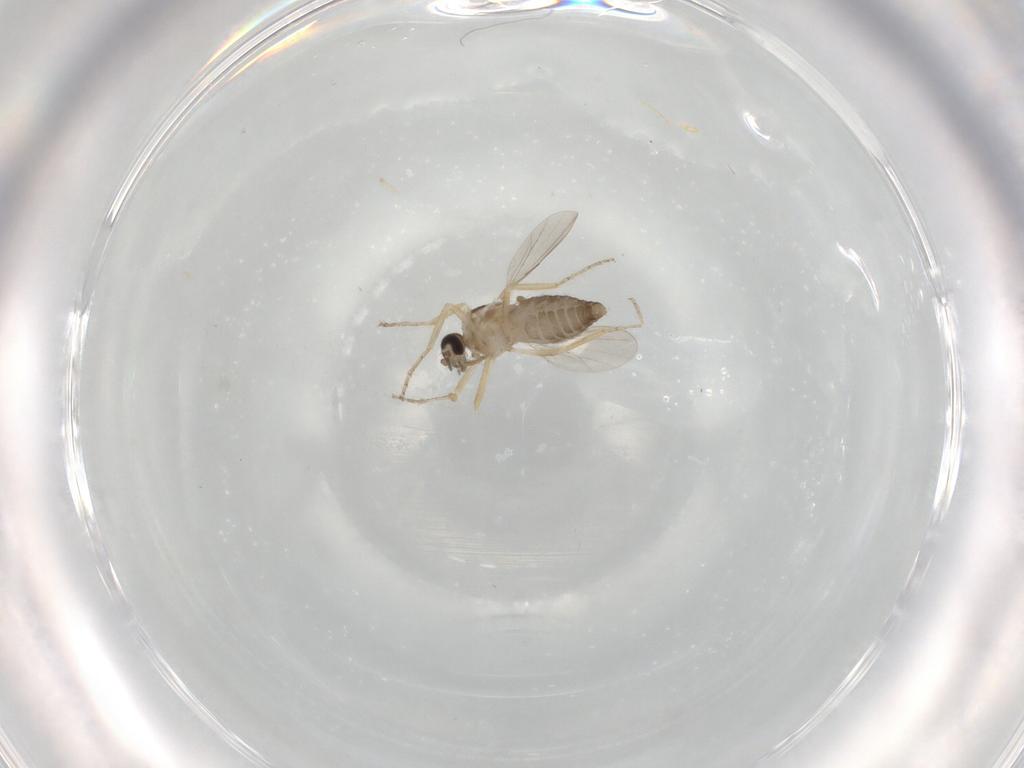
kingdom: Animalia
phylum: Arthropoda
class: Insecta
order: Diptera
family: Ceratopogonidae
